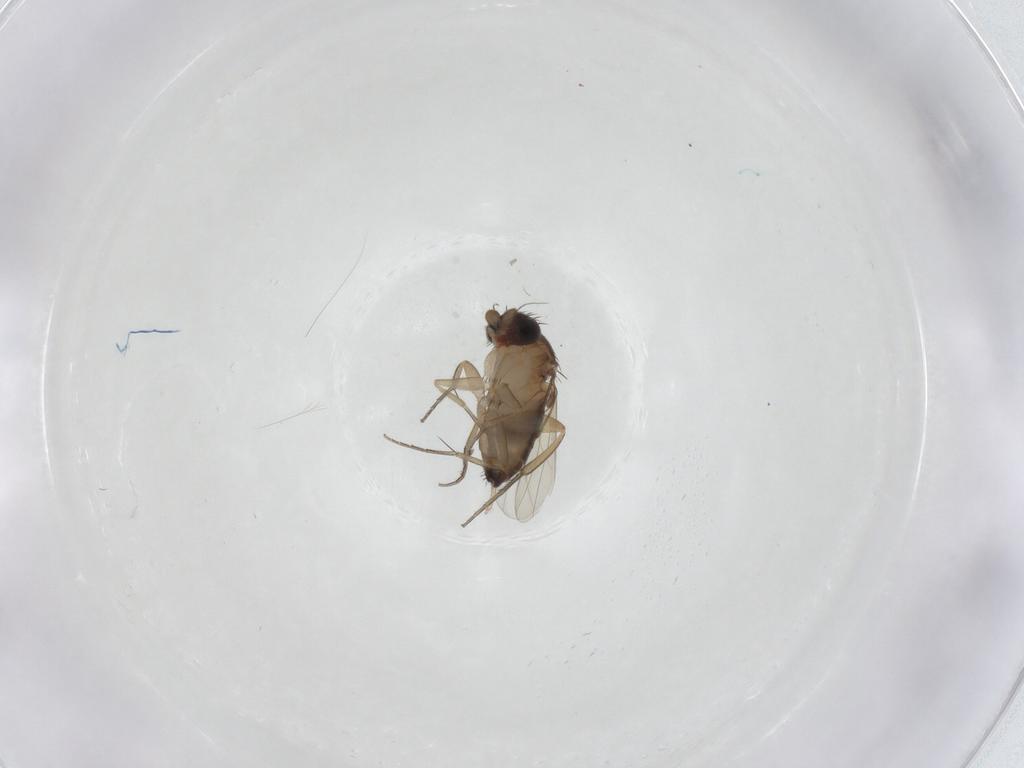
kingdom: Animalia
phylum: Arthropoda
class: Insecta
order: Diptera
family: Phoridae
